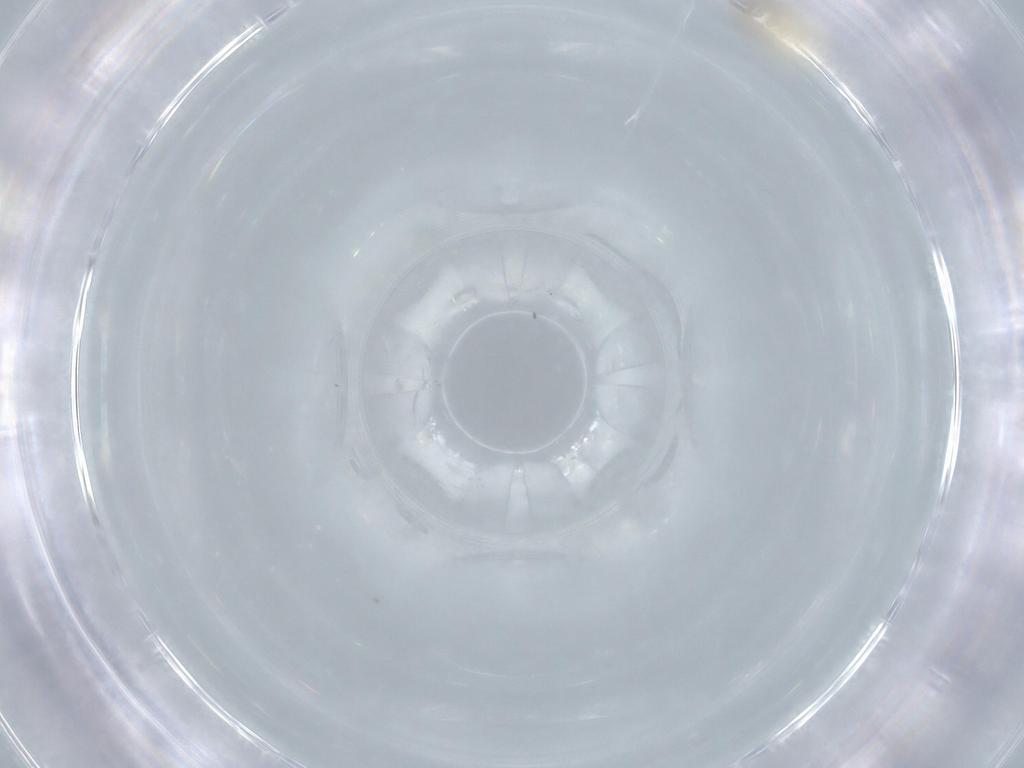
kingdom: Animalia
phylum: Arthropoda
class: Insecta
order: Diptera
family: Cecidomyiidae
